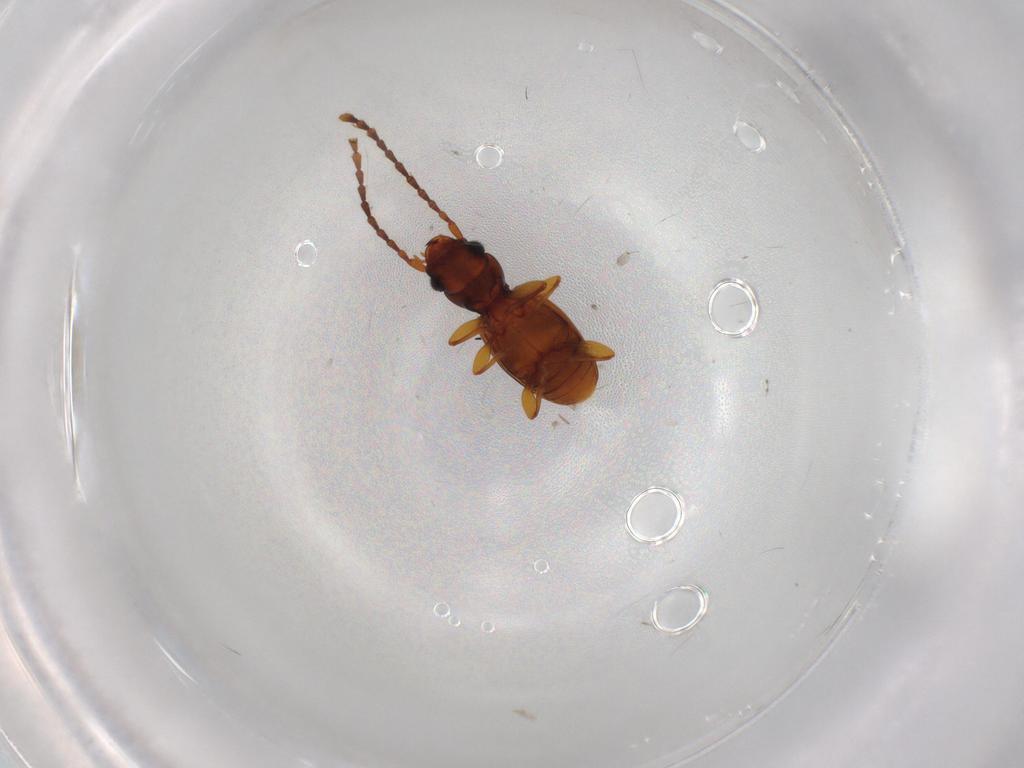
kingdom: Animalia
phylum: Arthropoda
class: Insecta
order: Coleoptera
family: Laemophloeidae
